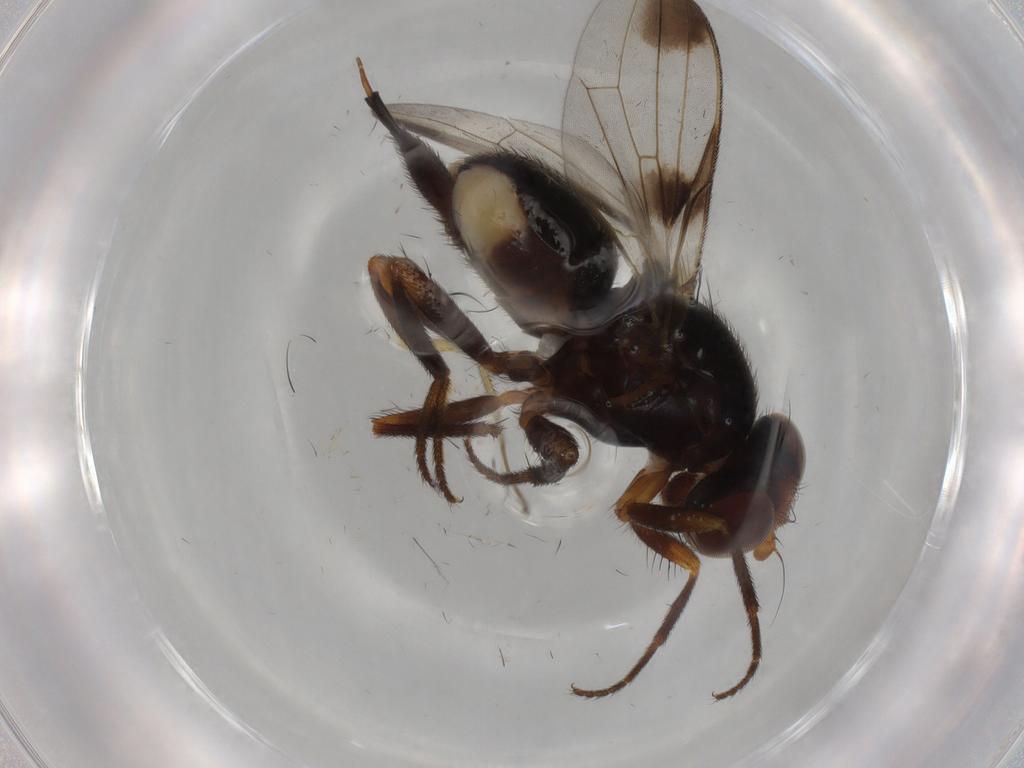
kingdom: Animalia
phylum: Arthropoda
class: Insecta
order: Diptera
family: Ulidiidae
